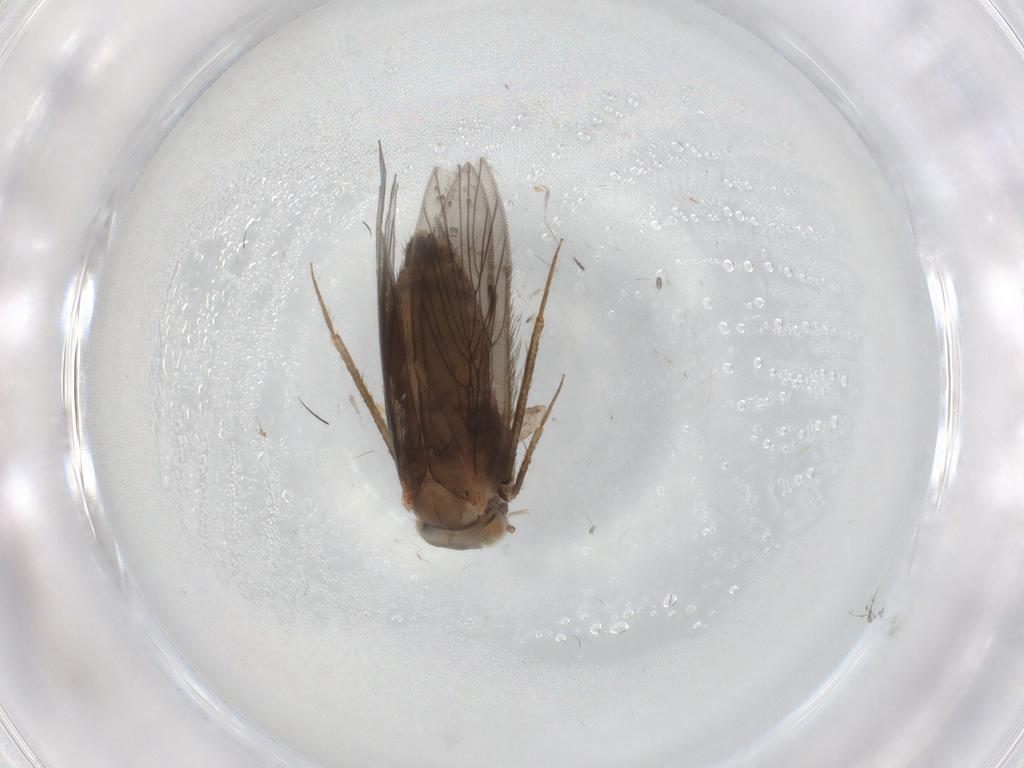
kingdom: Animalia
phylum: Arthropoda
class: Insecta
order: Psocodea
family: Lepidopsocidae
